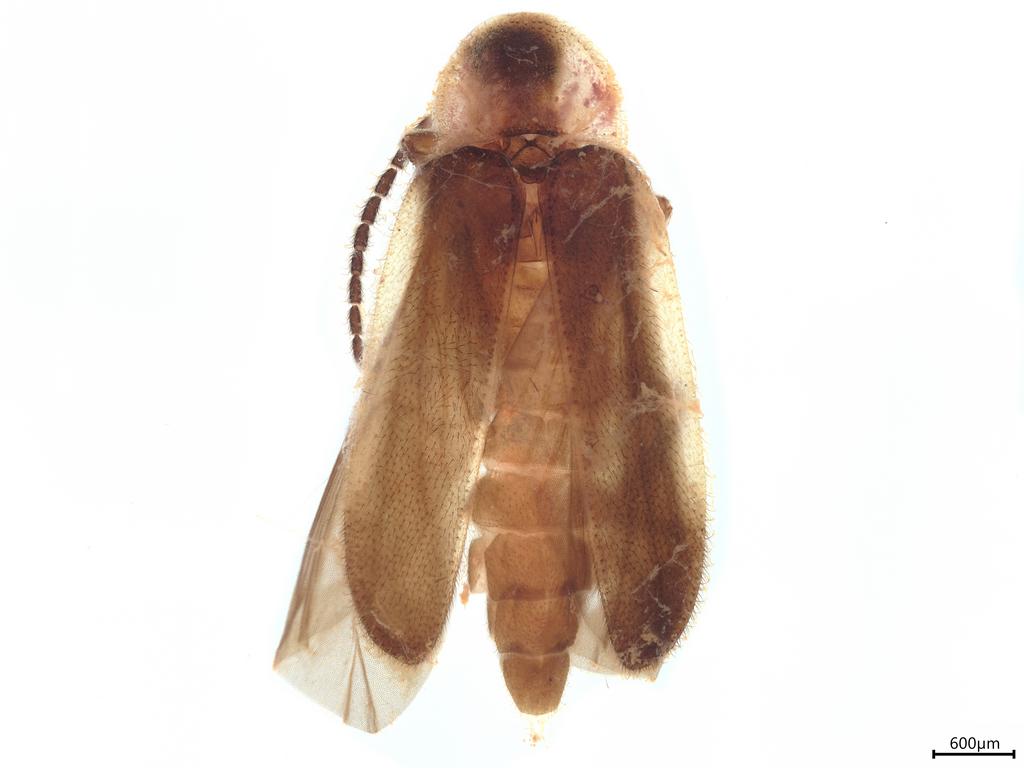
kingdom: Animalia
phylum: Arthropoda
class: Insecta
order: Coleoptera
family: Lampyridae
